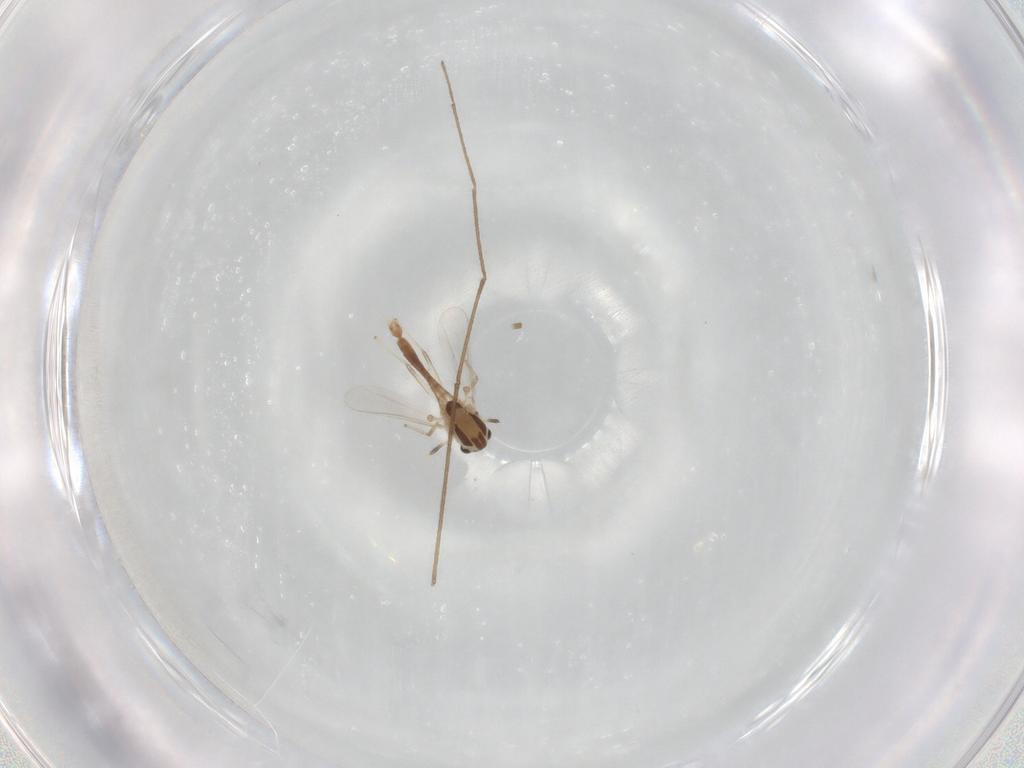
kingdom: Animalia
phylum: Arthropoda
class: Insecta
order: Diptera
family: Chironomidae
